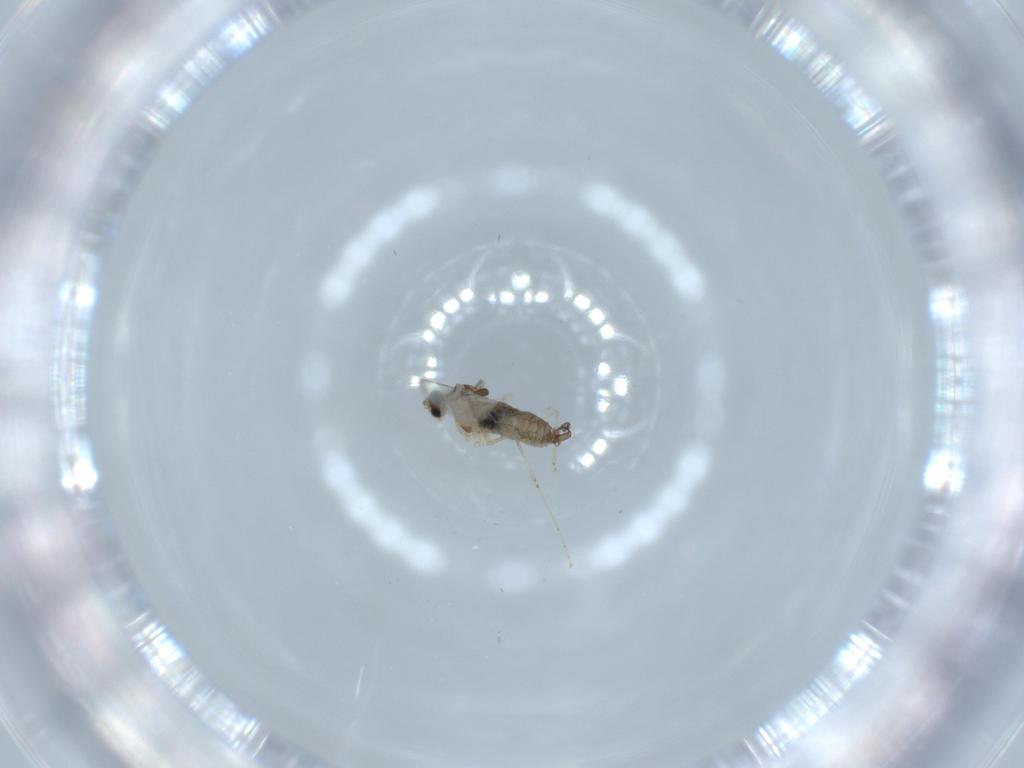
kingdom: Animalia
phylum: Arthropoda
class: Insecta
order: Diptera
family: Cecidomyiidae
